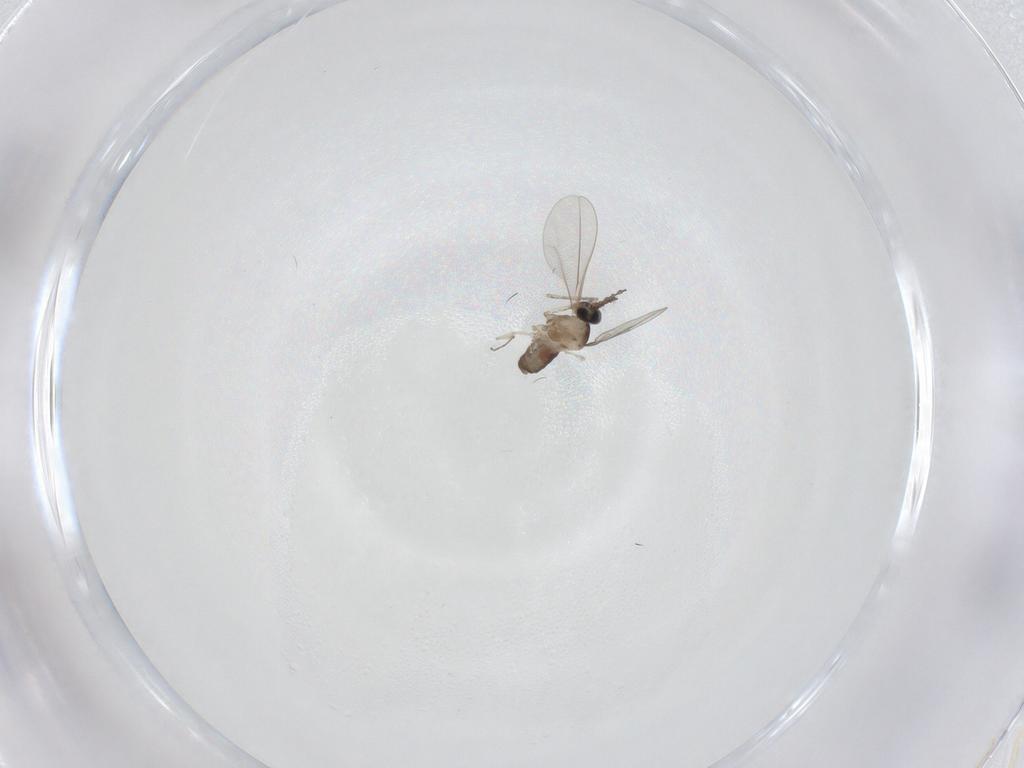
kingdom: Animalia
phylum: Arthropoda
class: Insecta
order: Diptera
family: Cecidomyiidae
